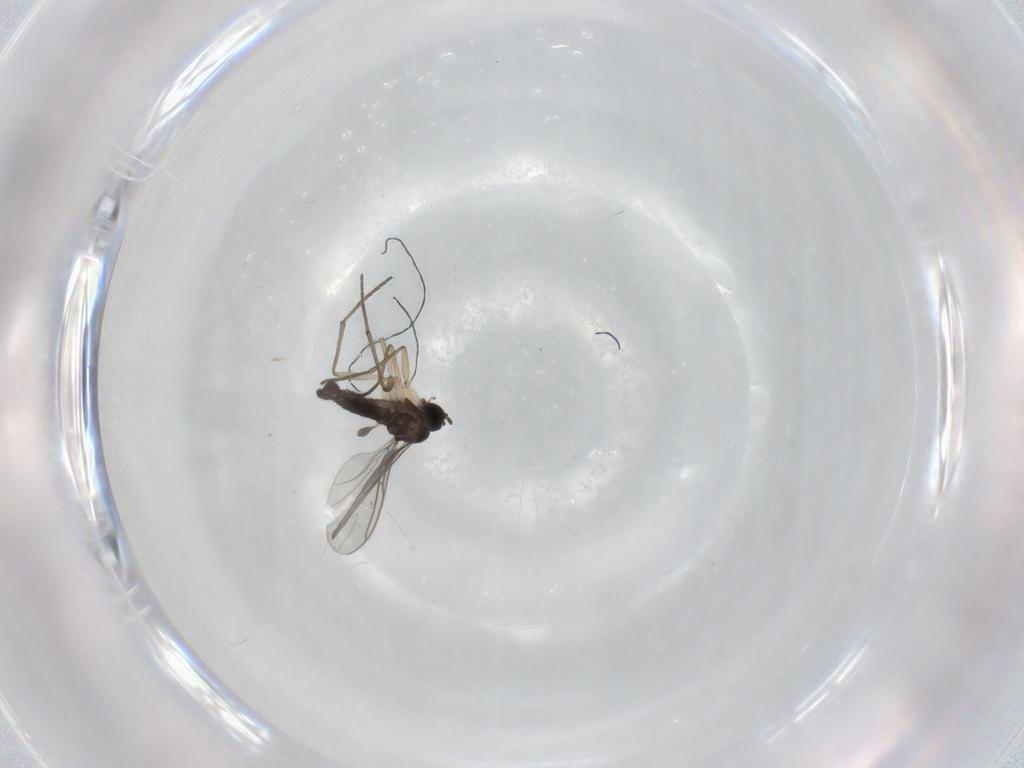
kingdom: Animalia
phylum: Arthropoda
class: Insecta
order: Diptera
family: Sciaridae
